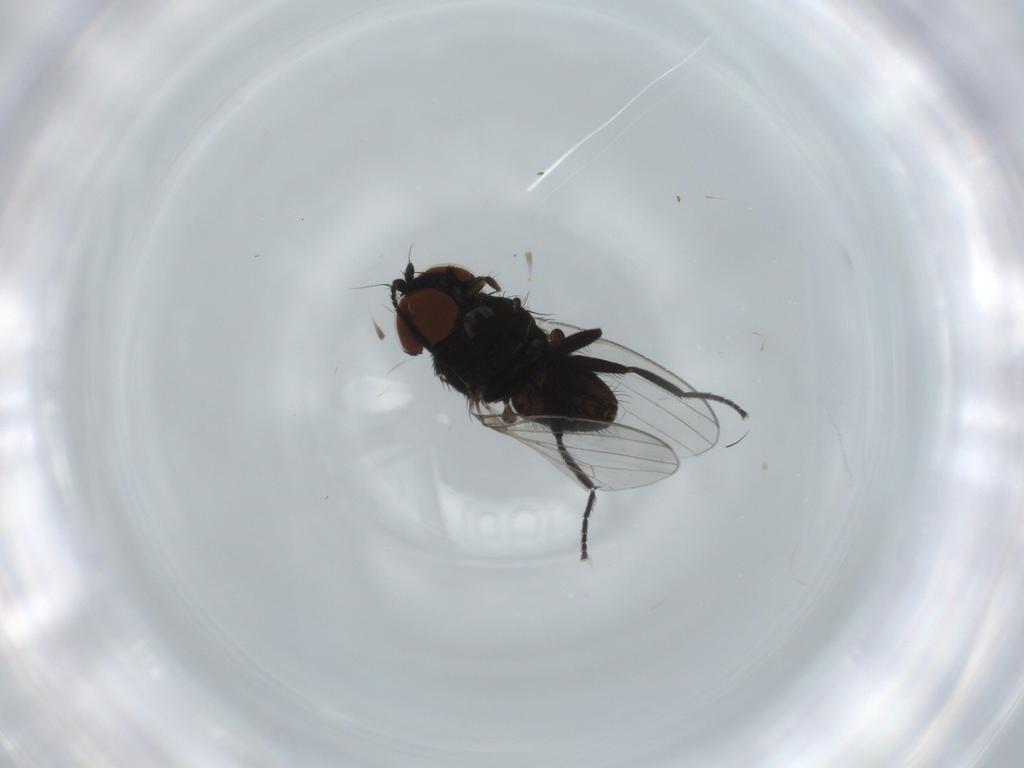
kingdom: Animalia
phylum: Arthropoda
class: Insecta
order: Diptera
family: Milichiidae
